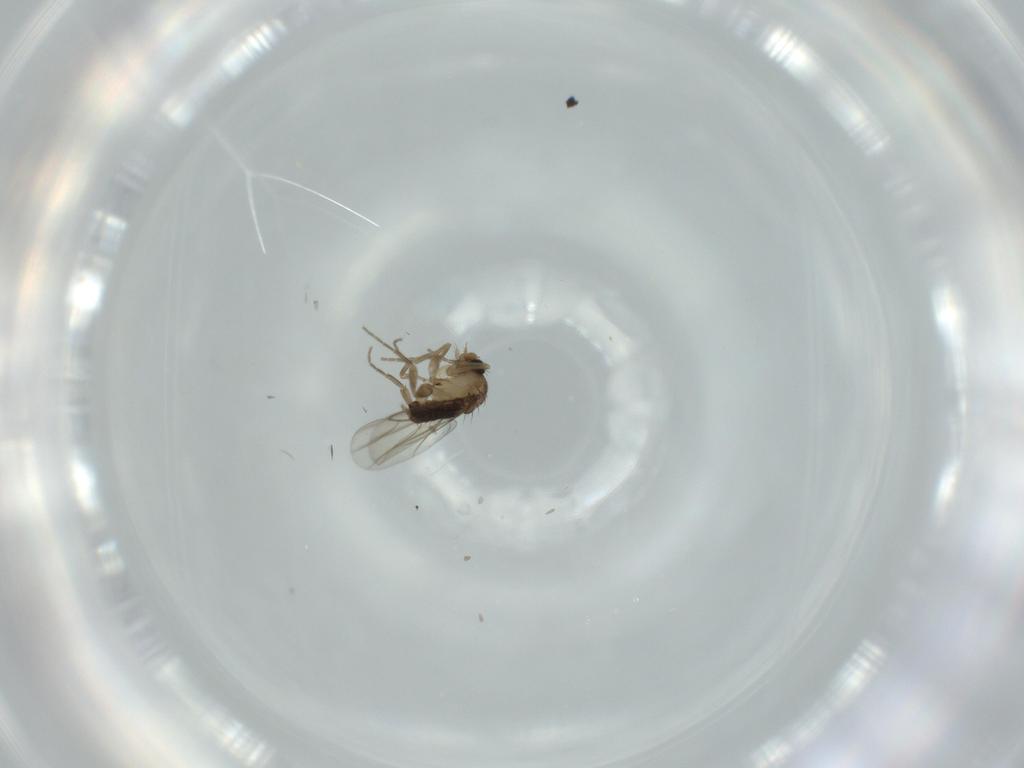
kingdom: Animalia
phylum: Arthropoda
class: Insecta
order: Diptera
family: Phoridae
